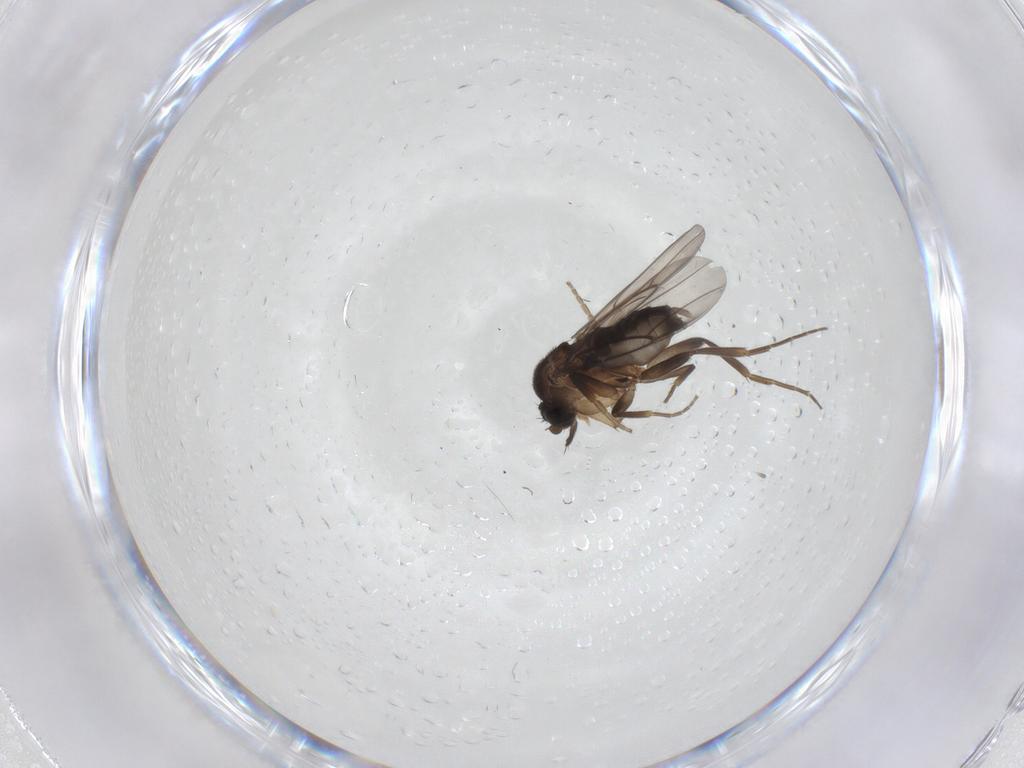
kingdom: Animalia
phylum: Arthropoda
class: Insecta
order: Diptera
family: Phoridae
